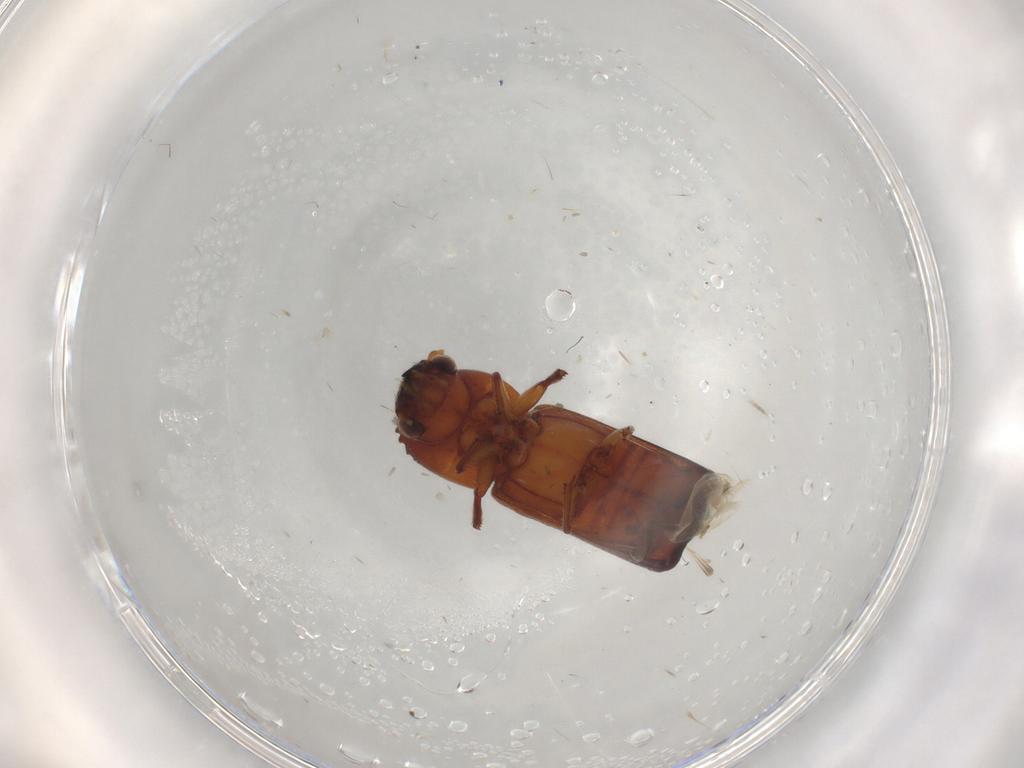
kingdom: Animalia
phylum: Arthropoda
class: Insecta
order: Coleoptera
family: Bostrichidae
